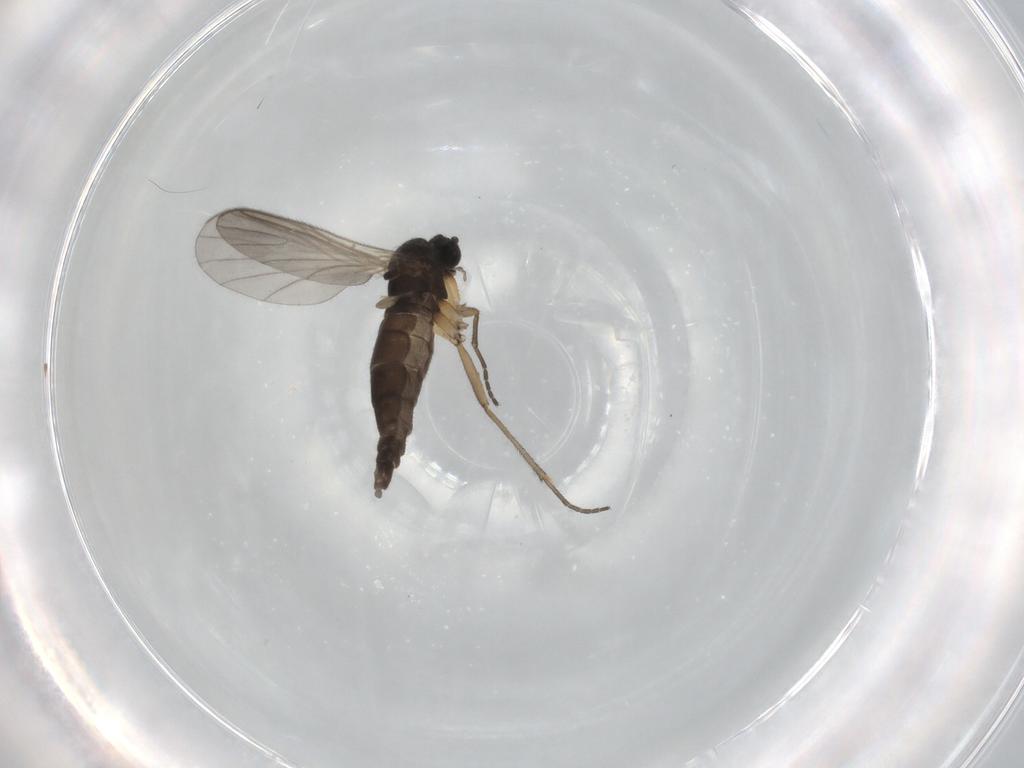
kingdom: Animalia
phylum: Arthropoda
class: Insecta
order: Diptera
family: Sciaridae
